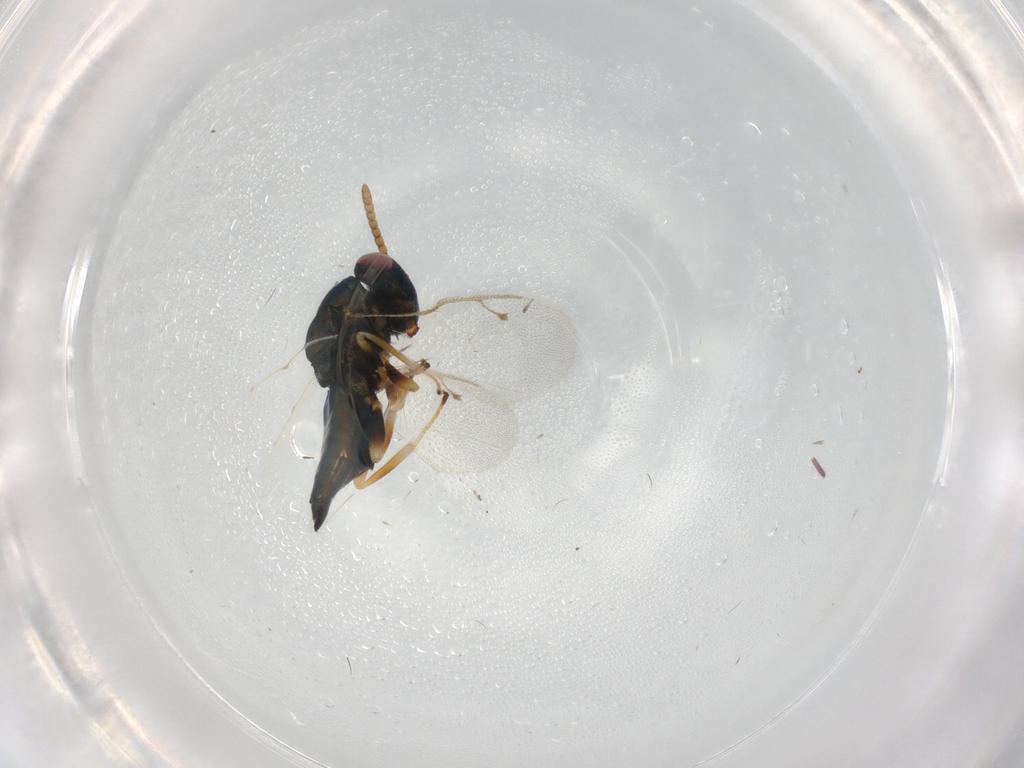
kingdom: Animalia
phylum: Arthropoda
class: Insecta
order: Hymenoptera
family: Pteromalidae
